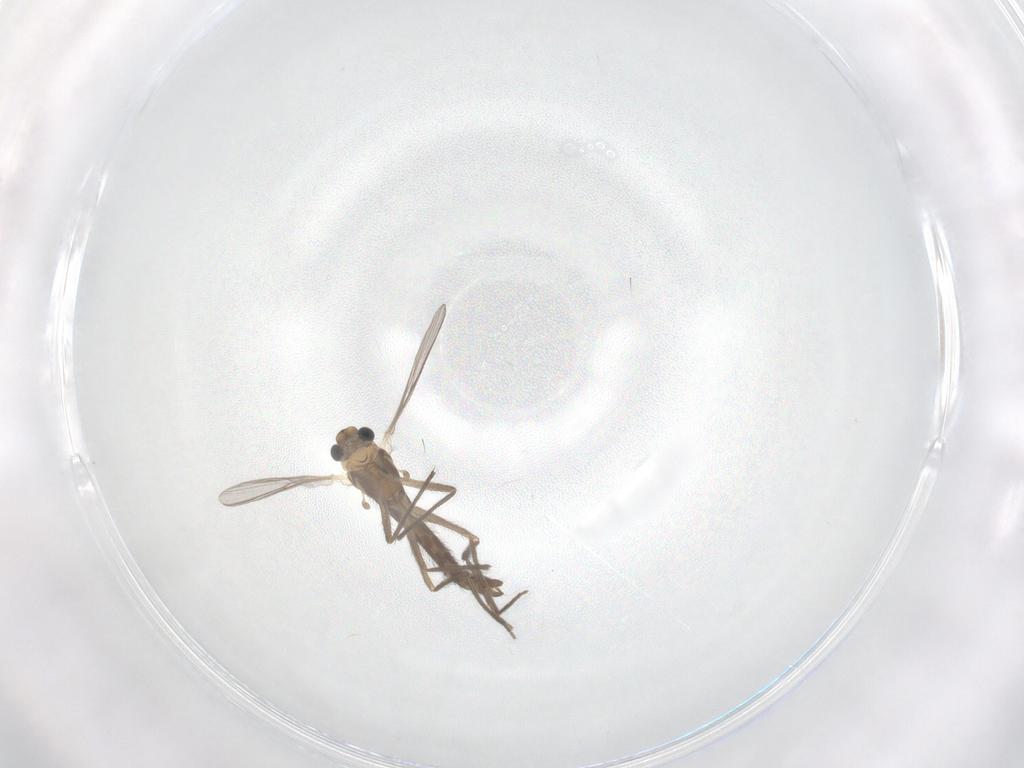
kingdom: Animalia
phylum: Arthropoda
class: Insecta
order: Diptera
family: Chironomidae
